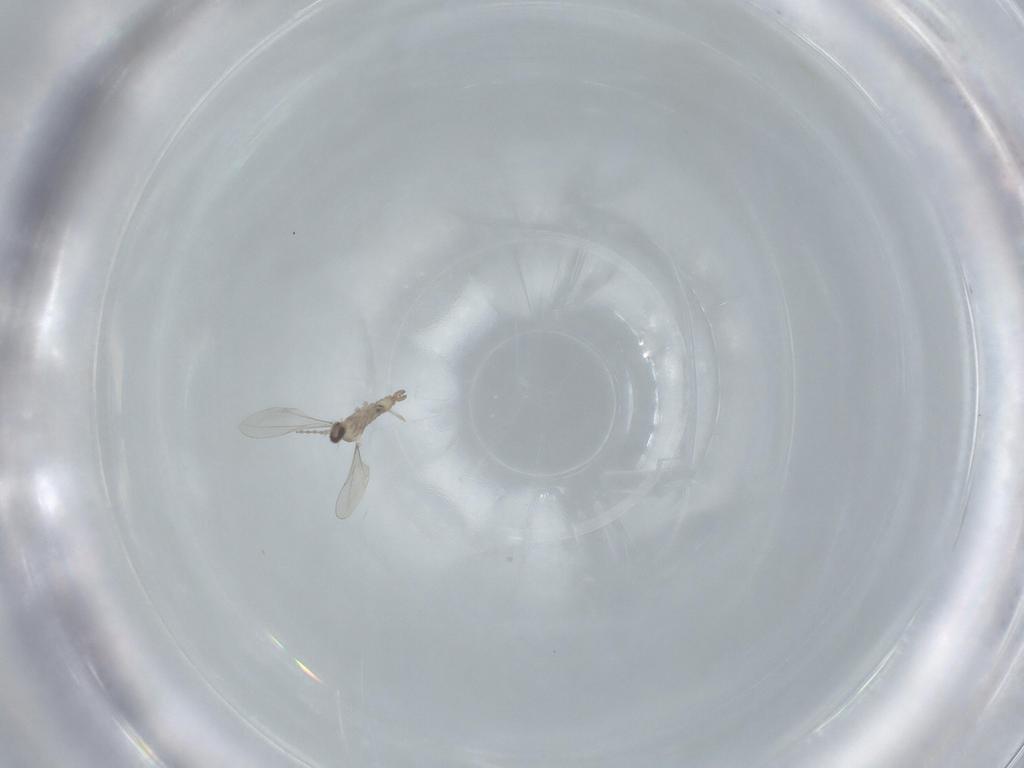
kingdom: Animalia
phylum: Arthropoda
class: Insecta
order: Diptera
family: Cecidomyiidae
